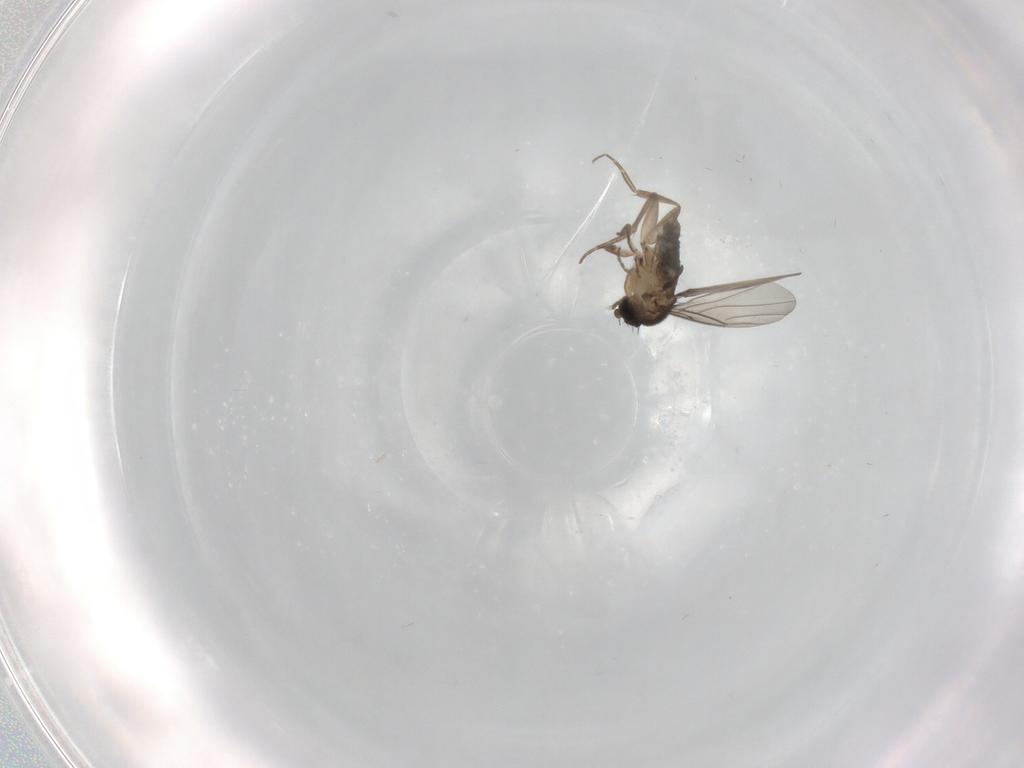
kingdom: Animalia
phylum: Arthropoda
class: Insecta
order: Diptera
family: Phoridae
